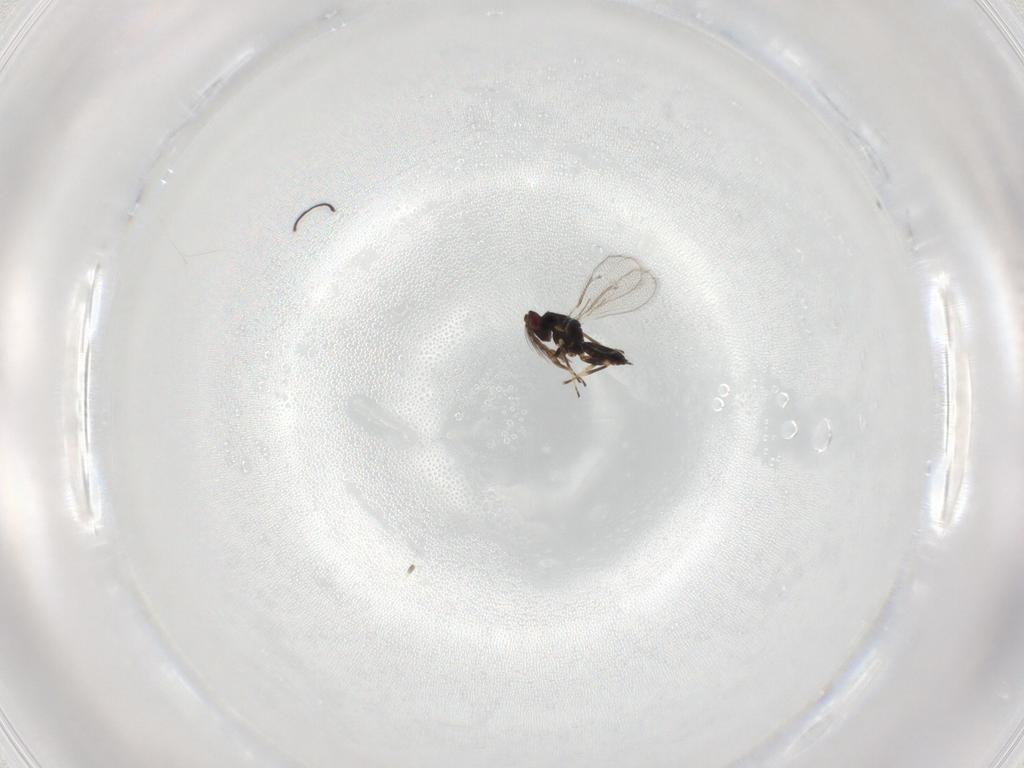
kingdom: Animalia
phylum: Arthropoda
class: Insecta
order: Hymenoptera
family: Eulophidae
